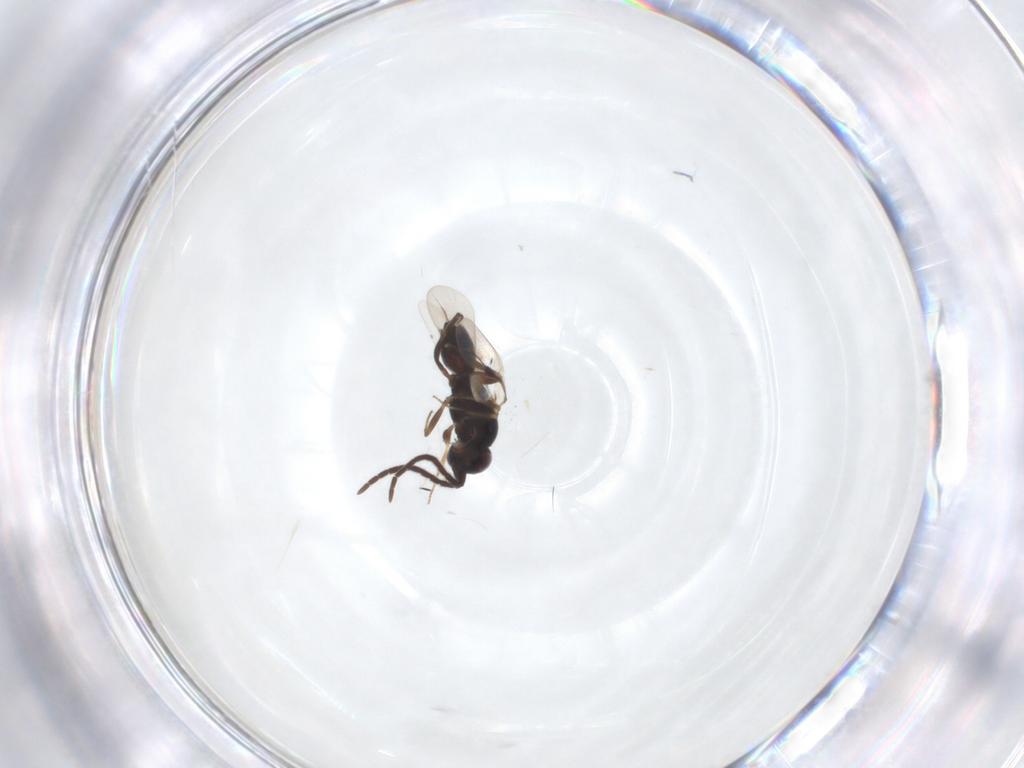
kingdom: Animalia
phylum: Arthropoda
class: Insecta
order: Hymenoptera
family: Megaspilidae
